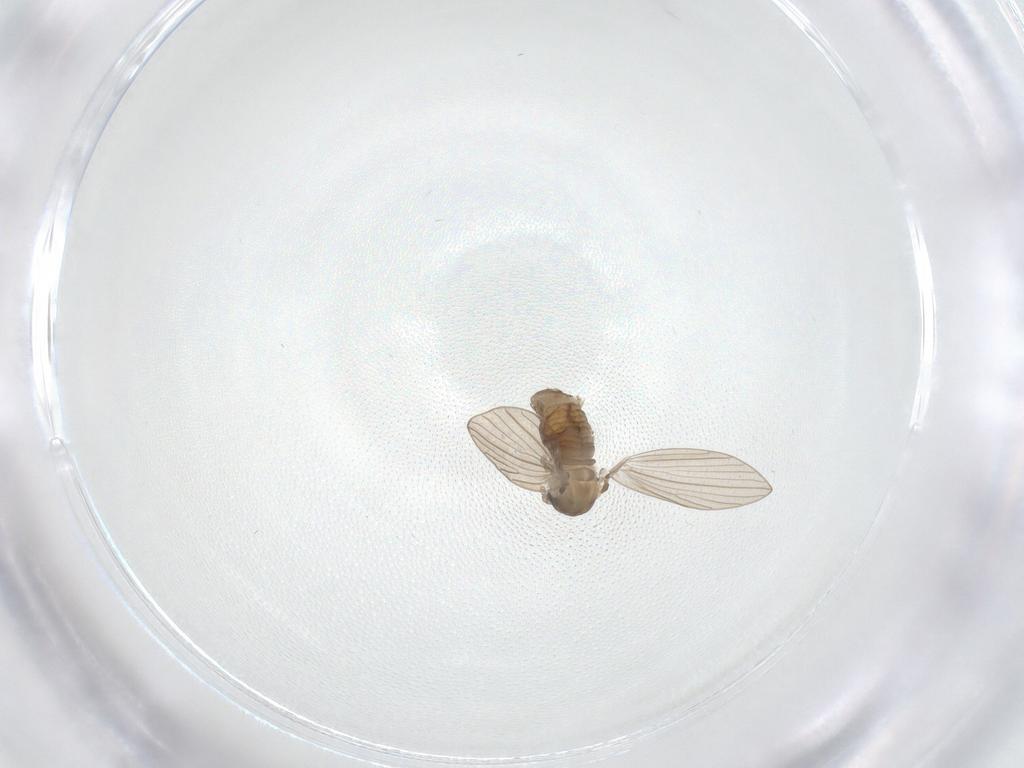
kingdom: Animalia
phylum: Arthropoda
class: Insecta
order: Diptera
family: Psychodidae
